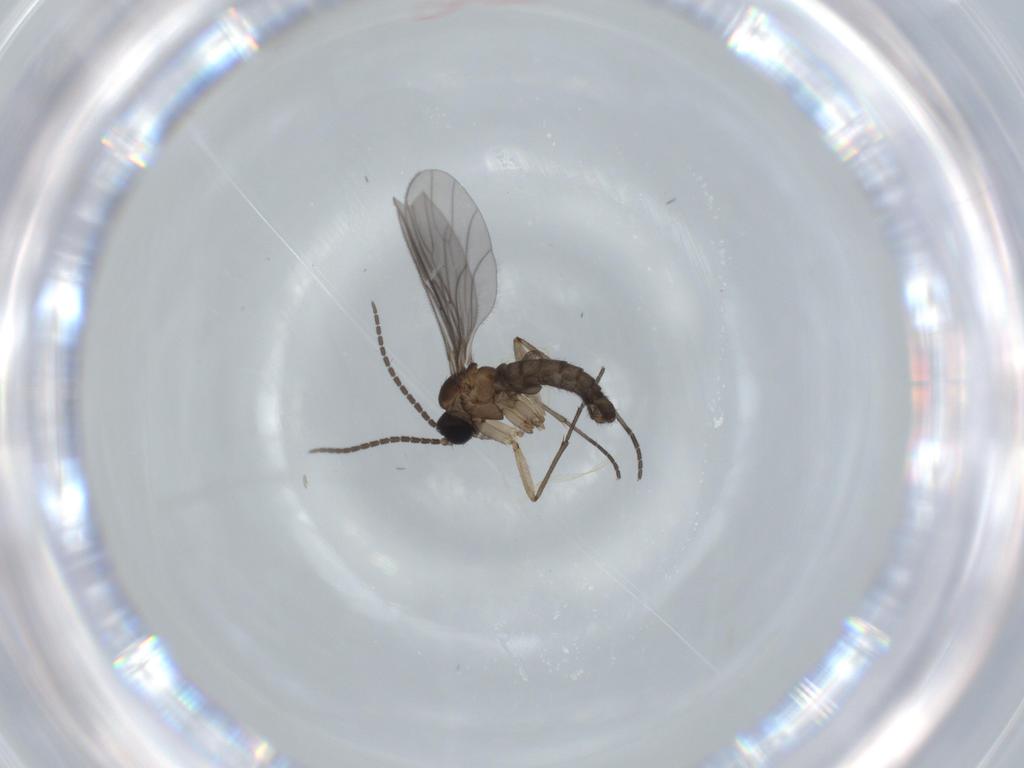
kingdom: Animalia
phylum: Arthropoda
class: Insecta
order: Diptera
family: Sciaridae
